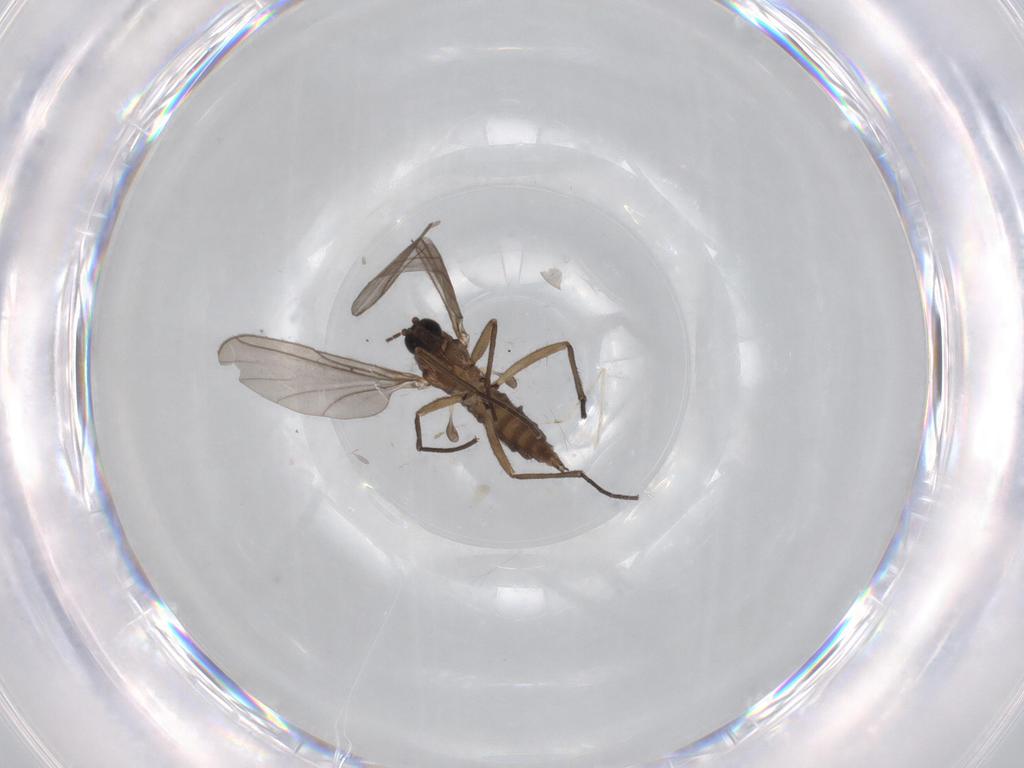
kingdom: Animalia
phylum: Arthropoda
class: Insecta
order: Diptera
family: Sciaridae
